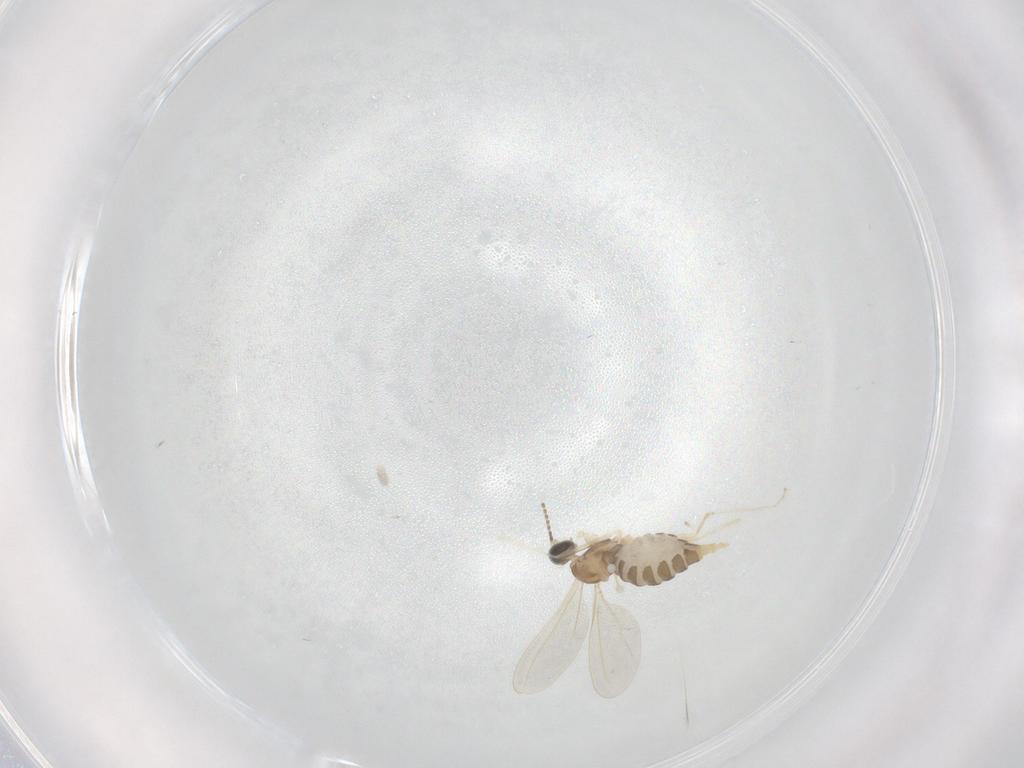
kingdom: Animalia
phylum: Arthropoda
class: Insecta
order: Diptera
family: Cecidomyiidae
